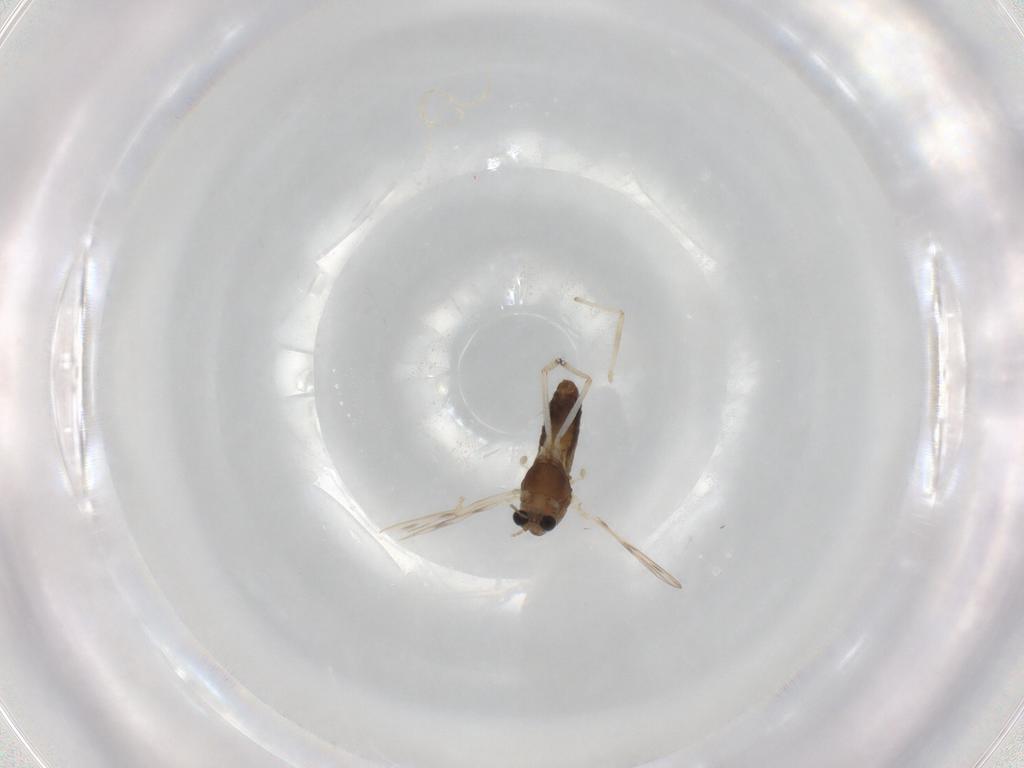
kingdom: Animalia
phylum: Arthropoda
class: Insecta
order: Diptera
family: Chironomidae
